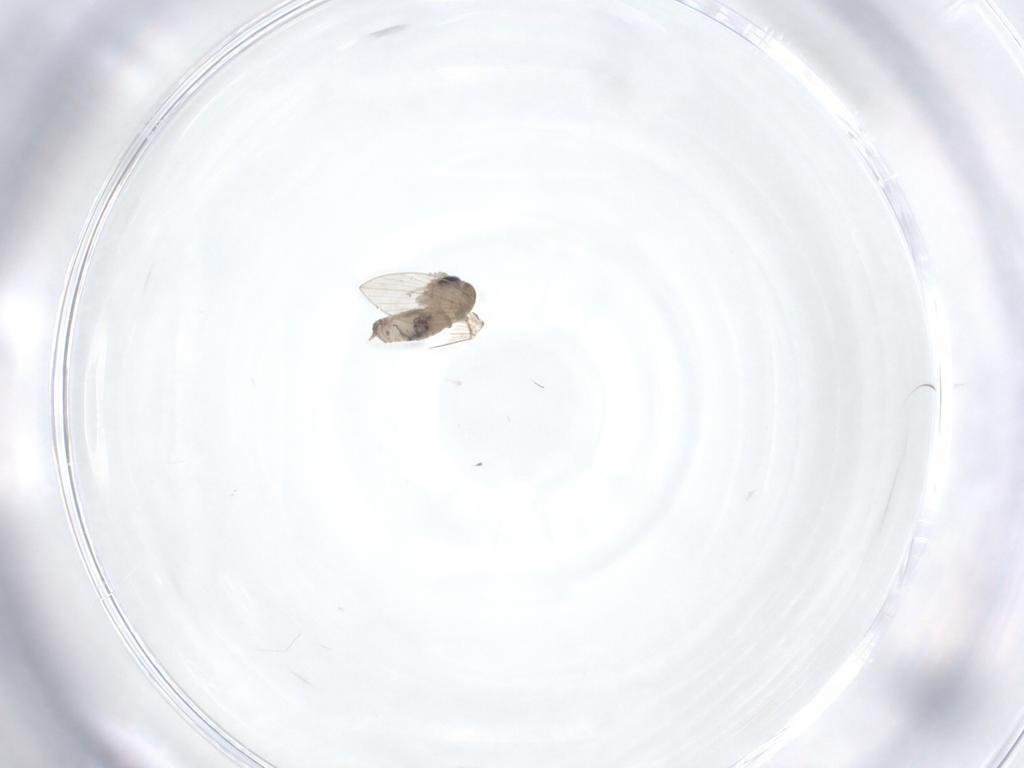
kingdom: Animalia
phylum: Arthropoda
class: Insecta
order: Diptera
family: Psychodidae
